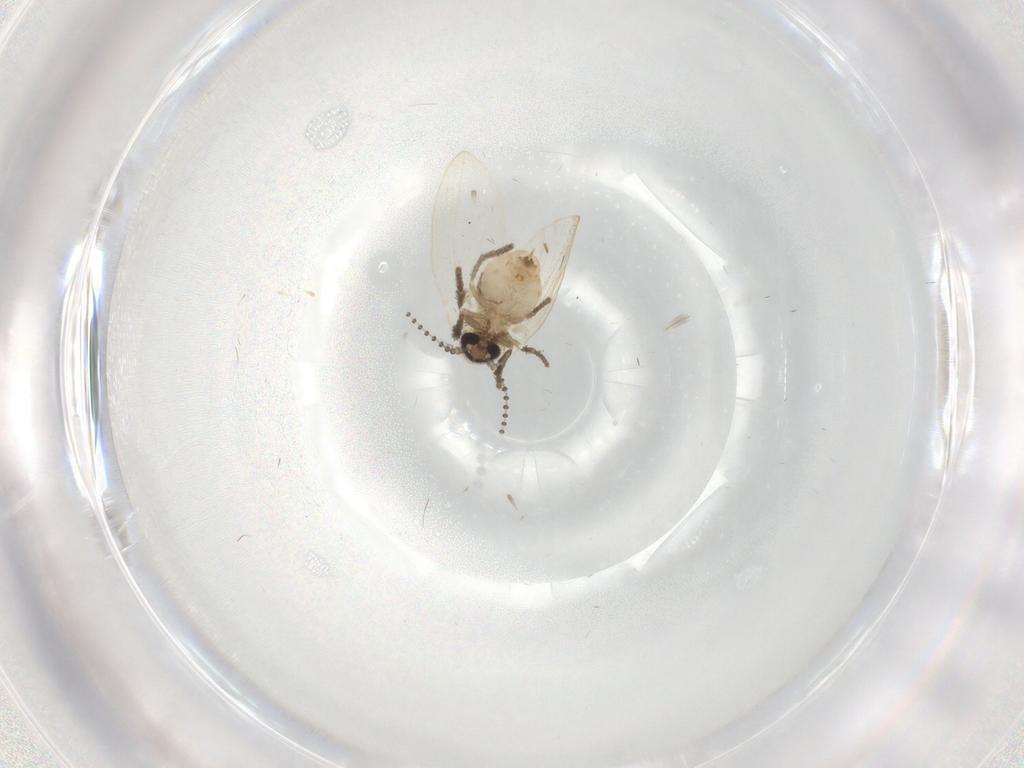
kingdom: Animalia
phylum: Arthropoda
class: Insecta
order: Diptera
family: Psychodidae
